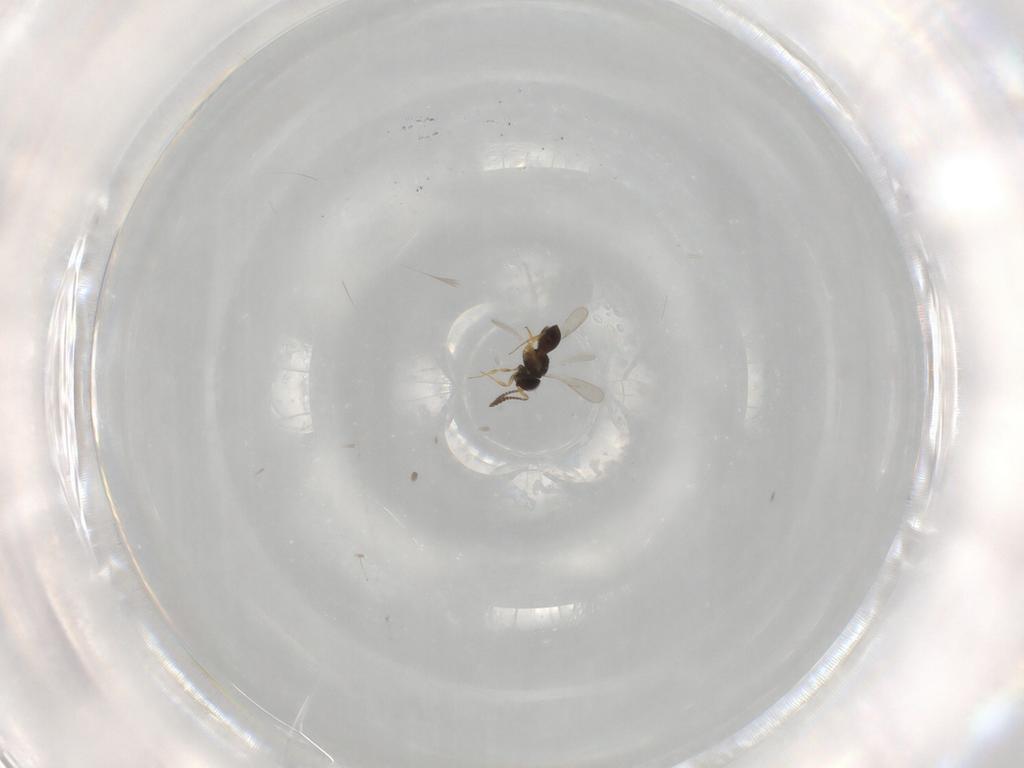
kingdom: Animalia
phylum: Arthropoda
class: Insecta
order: Hymenoptera
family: Scelionidae
